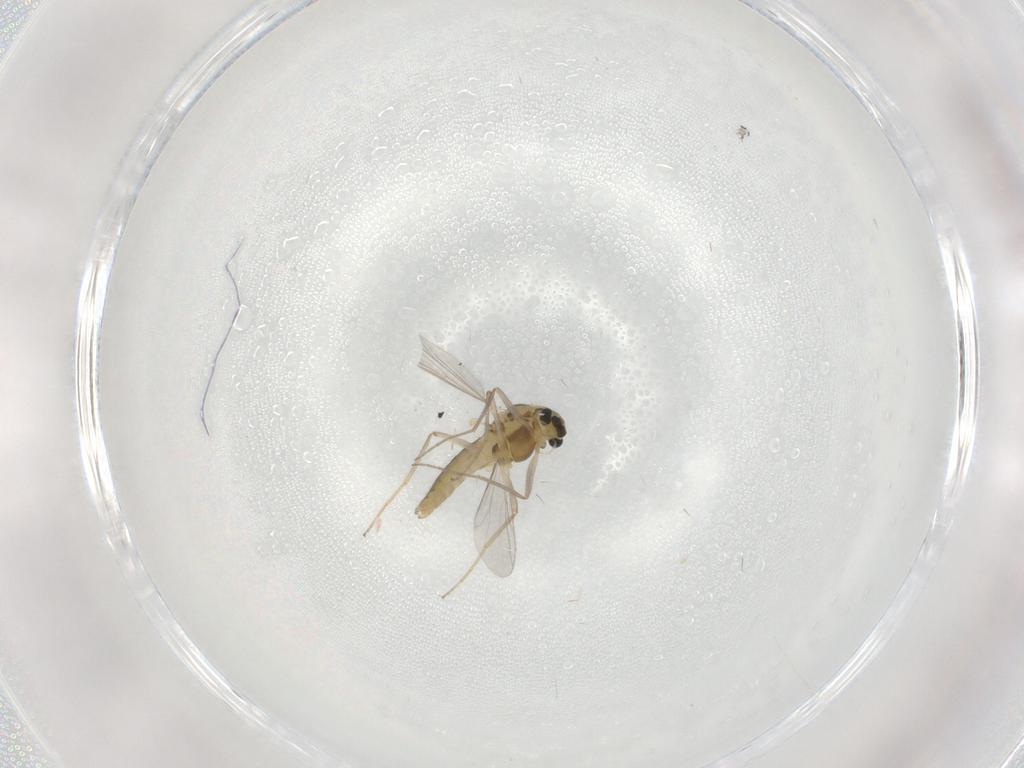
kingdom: Animalia
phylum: Arthropoda
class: Insecta
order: Diptera
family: Chironomidae
